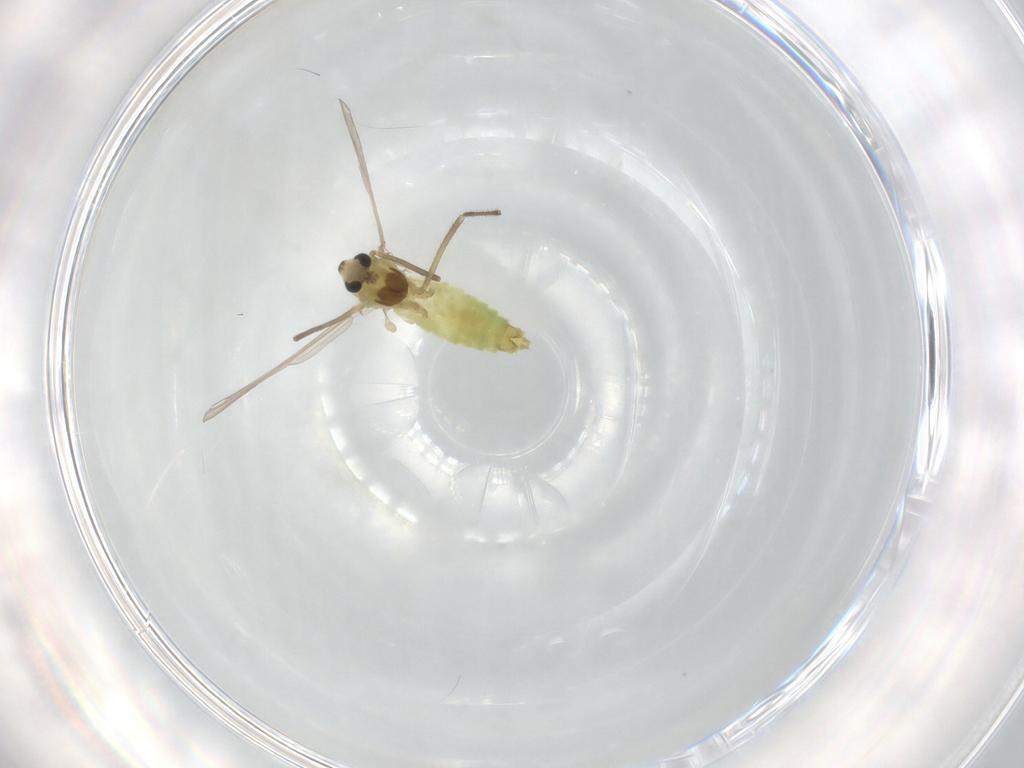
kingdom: Animalia
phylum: Arthropoda
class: Insecta
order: Diptera
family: Chironomidae
